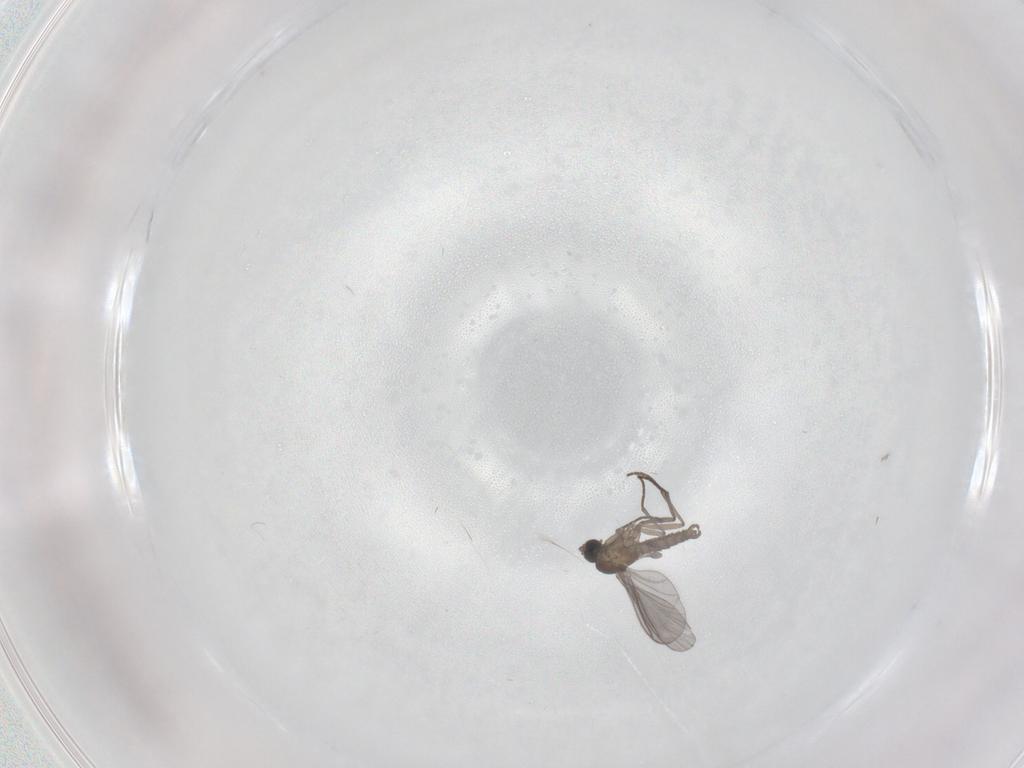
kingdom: Animalia
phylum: Arthropoda
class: Insecta
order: Diptera
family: Sciaridae
